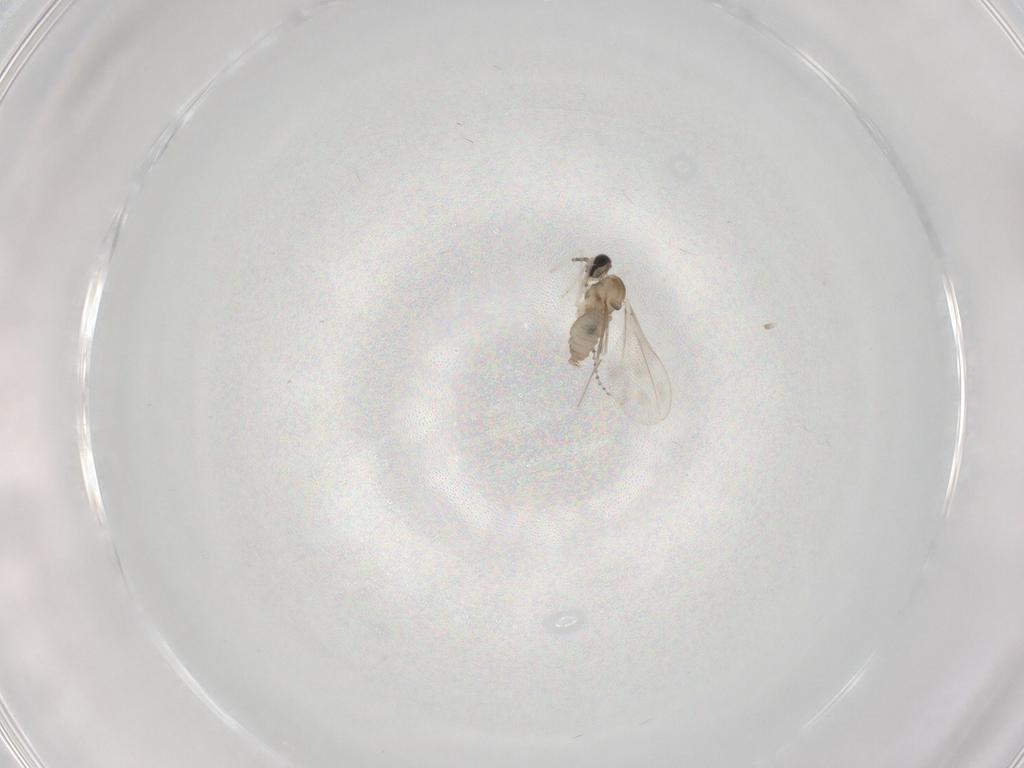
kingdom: Animalia
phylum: Arthropoda
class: Insecta
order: Diptera
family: Cecidomyiidae
